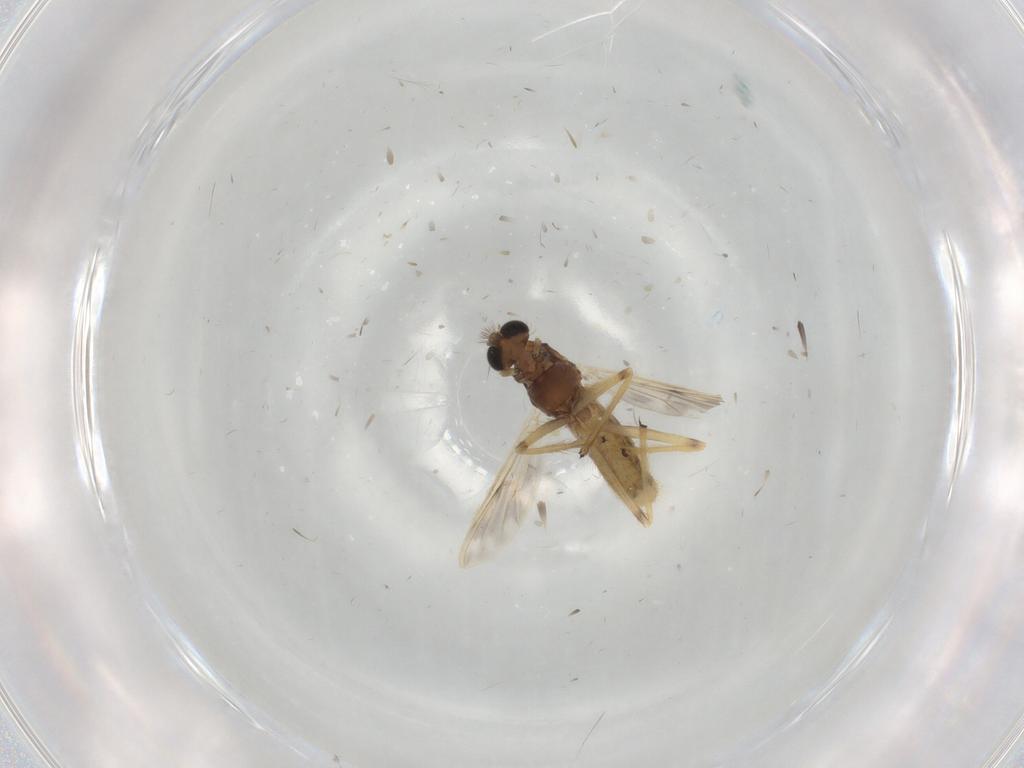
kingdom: Animalia
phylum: Arthropoda
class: Insecta
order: Diptera
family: Chironomidae
